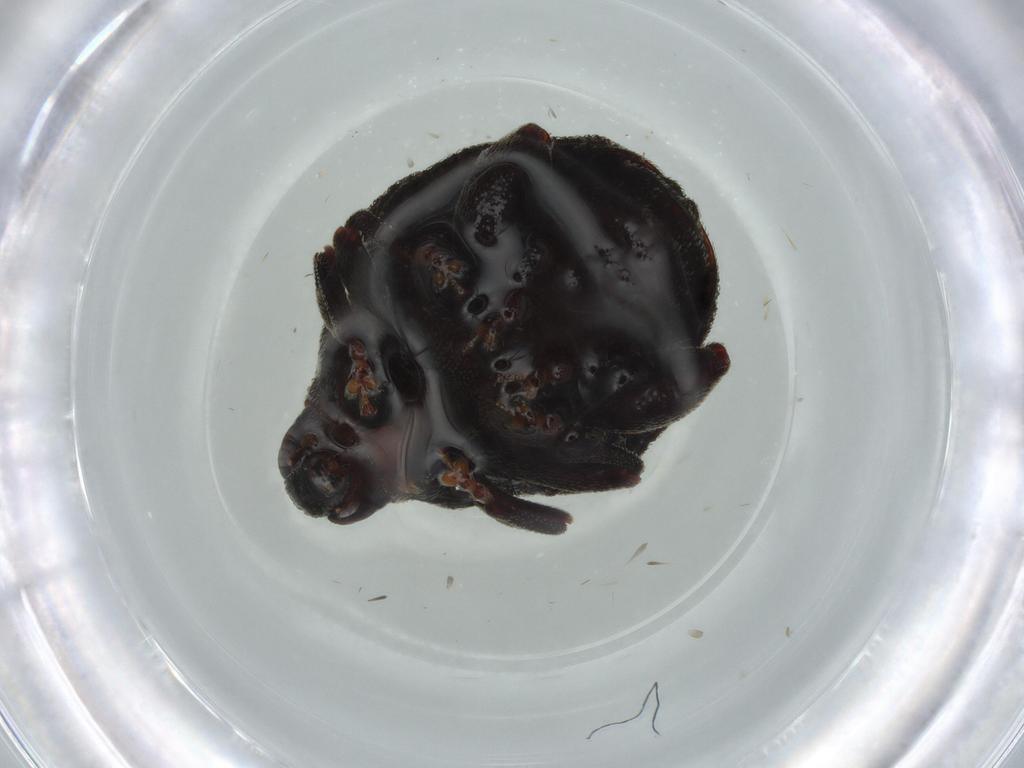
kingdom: Animalia
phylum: Arthropoda
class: Insecta
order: Coleoptera
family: Curculionidae
